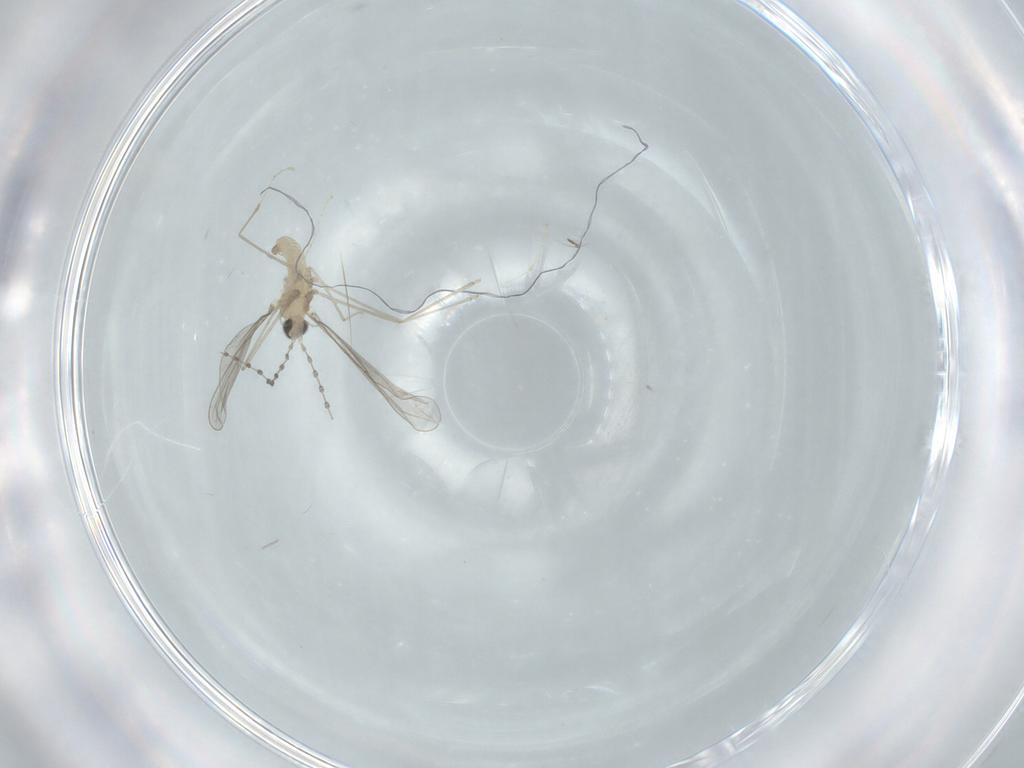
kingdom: Animalia
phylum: Arthropoda
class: Insecta
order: Diptera
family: Cecidomyiidae
